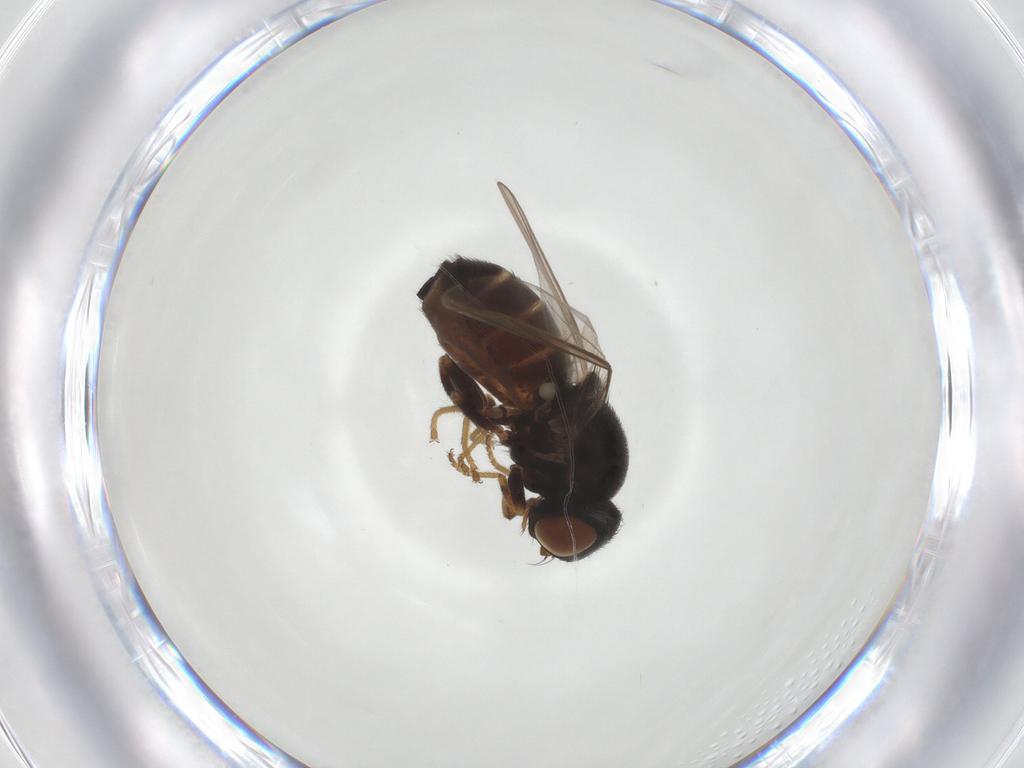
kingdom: Animalia
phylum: Arthropoda
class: Insecta
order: Diptera
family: Chloropidae
